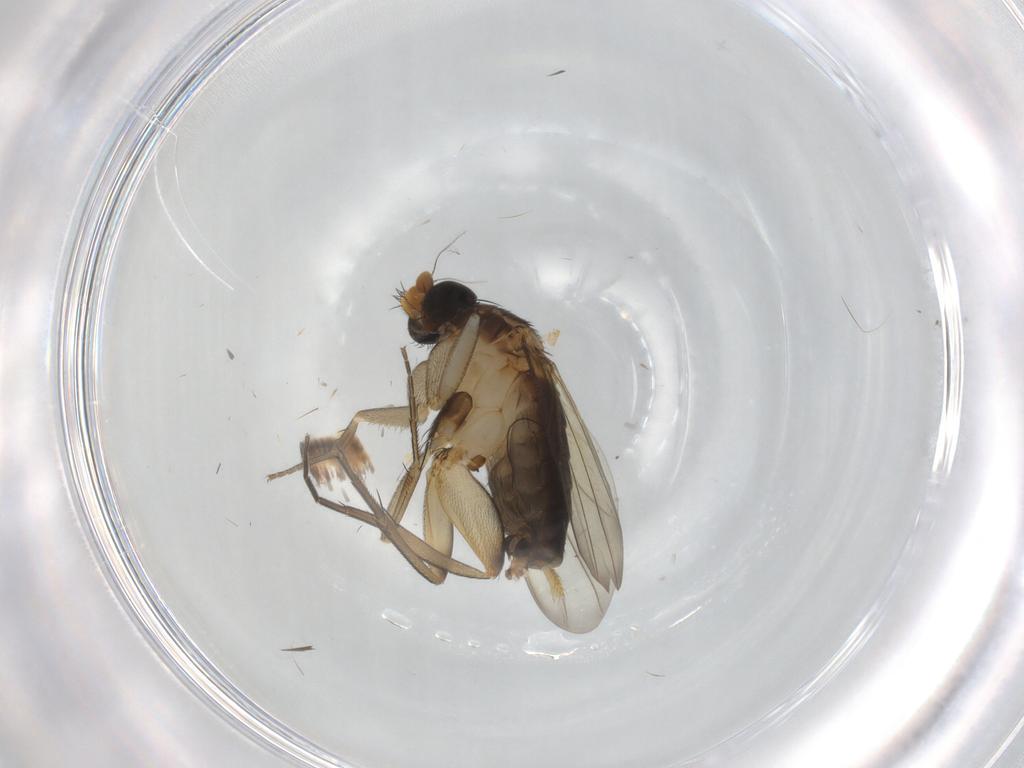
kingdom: Animalia
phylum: Arthropoda
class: Insecta
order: Diptera
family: Phoridae
